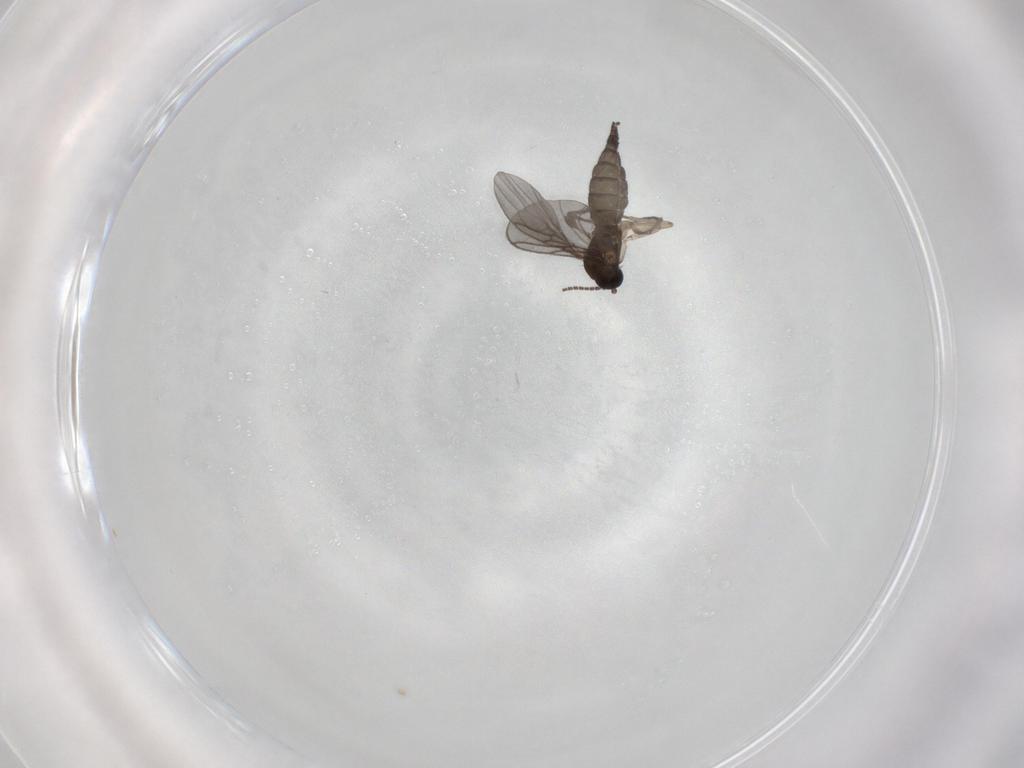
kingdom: Animalia
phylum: Arthropoda
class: Insecta
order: Diptera
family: Sciaridae
